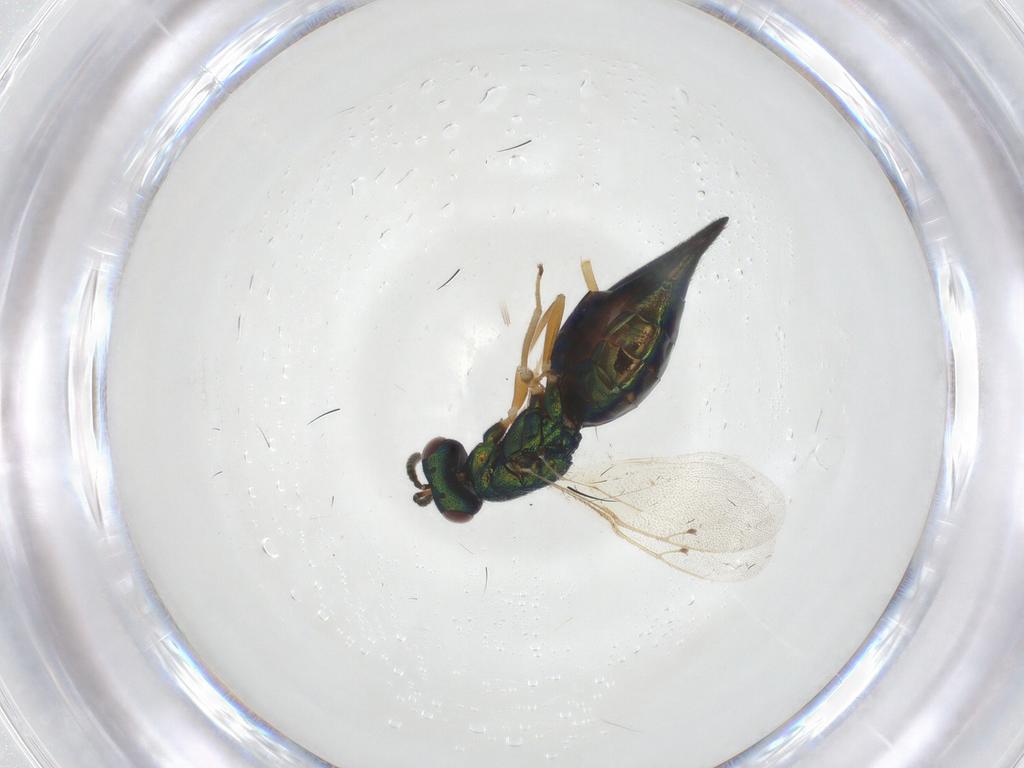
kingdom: Animalia
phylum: Arthropoda
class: Insecta
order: Hymenoptera
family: Pteromalidae
